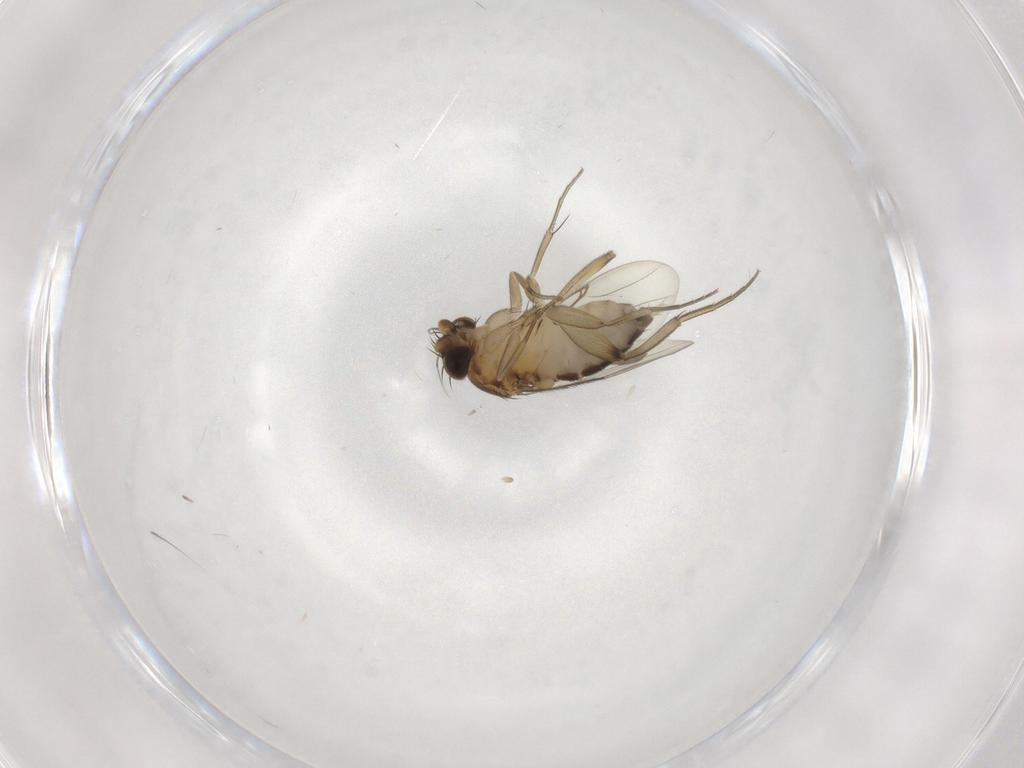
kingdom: Animalia
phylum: Arthropoda
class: Insecta
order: Diptera
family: Phoridae
